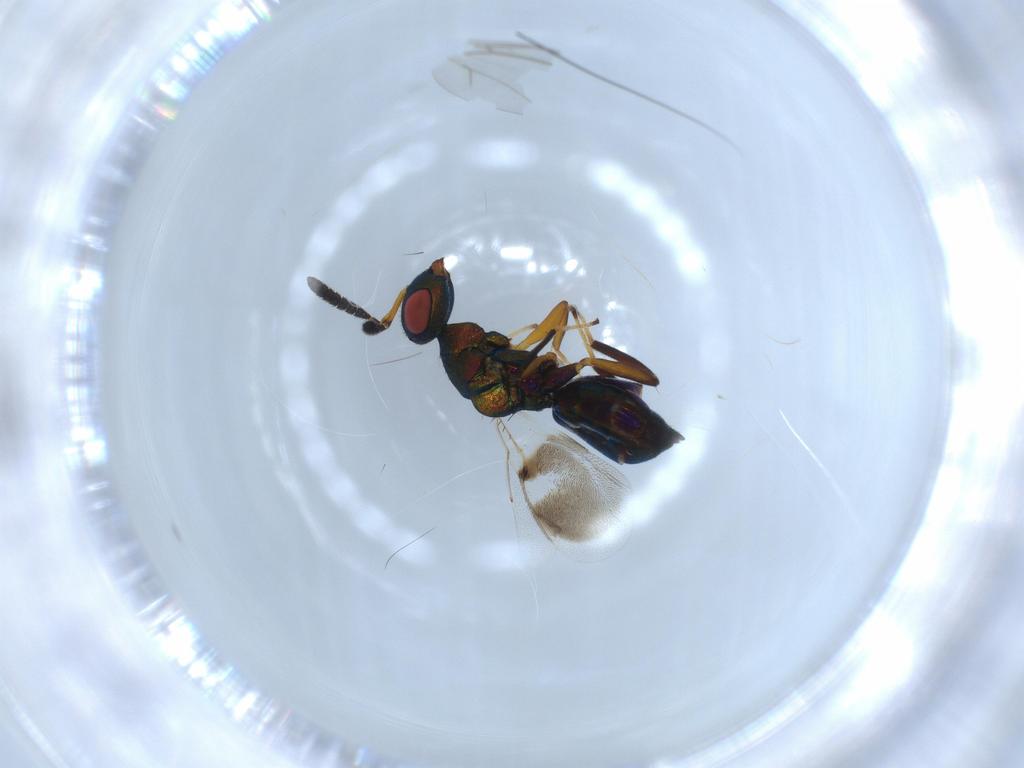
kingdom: Animalia
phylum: Arthropoda
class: Insecta
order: Hymenoptera
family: Pteromalidae
